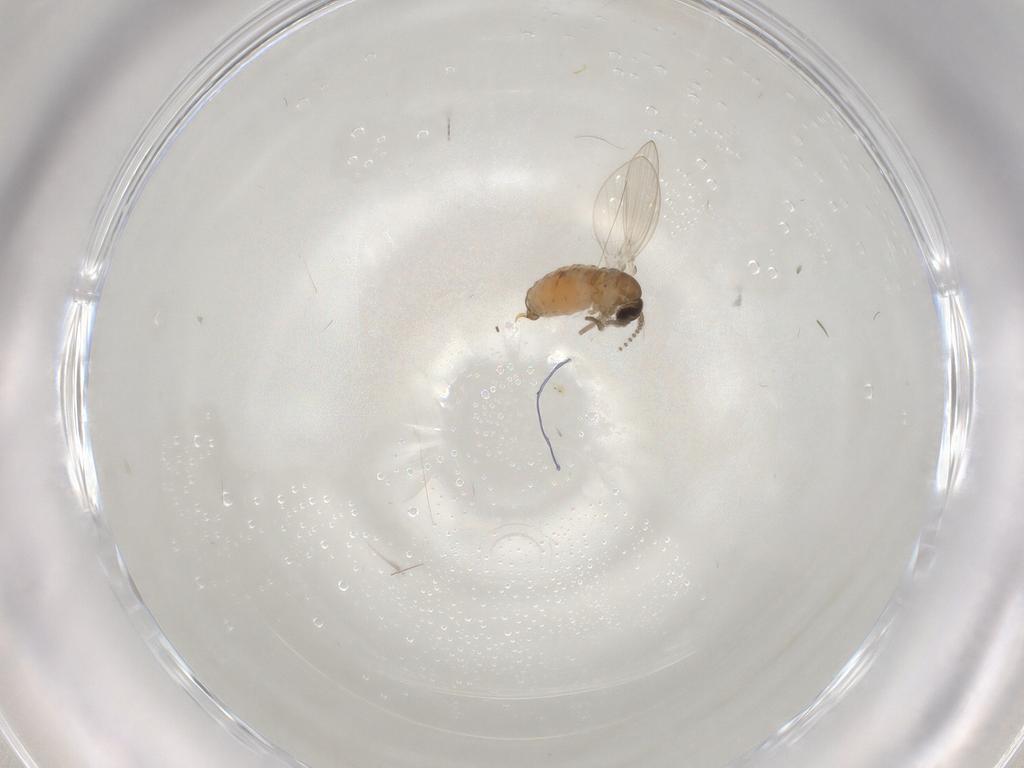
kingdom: Animalia
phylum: Arthropoda
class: Insecta
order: Diptera
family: Psychodidae
